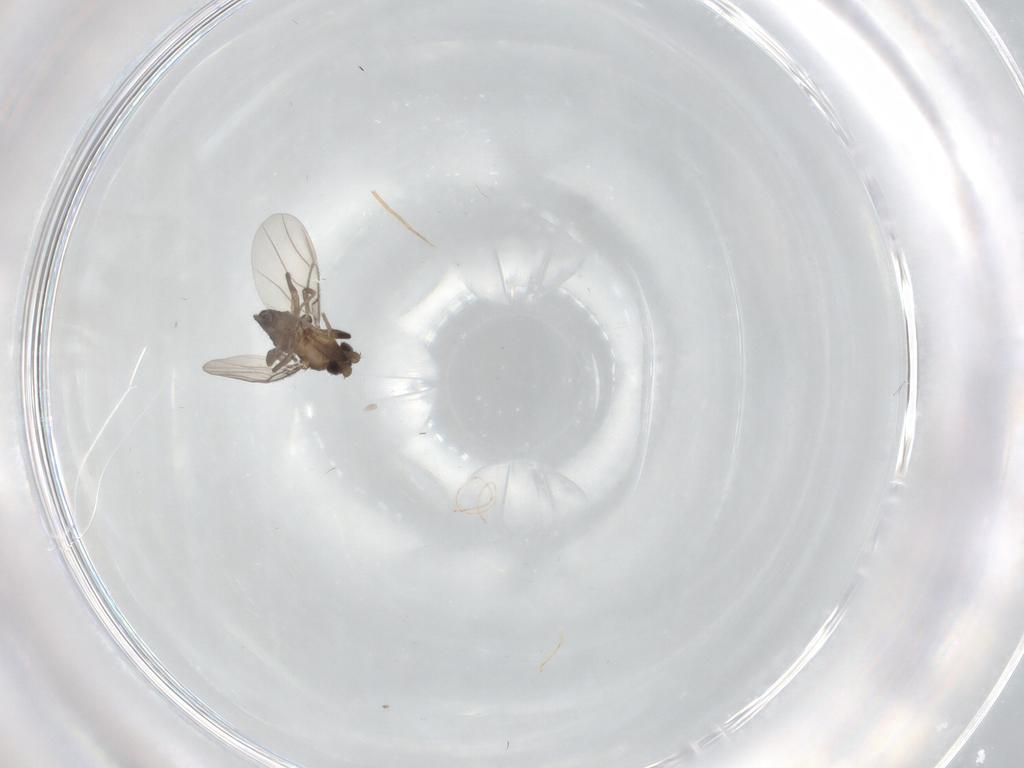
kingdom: Animalia
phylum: Arthropoda
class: Insecta
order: Diptera
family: Phoridae
